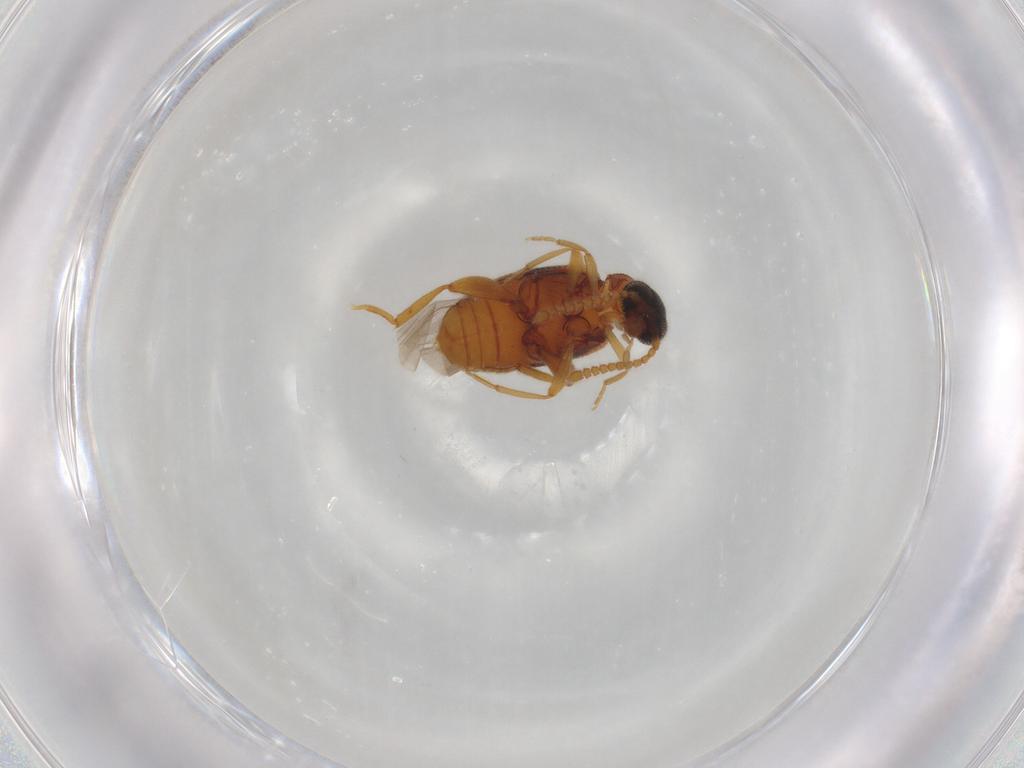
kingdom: Animalia
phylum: Arthropoda
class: Insecta
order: Coleoptera
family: Aderidae
